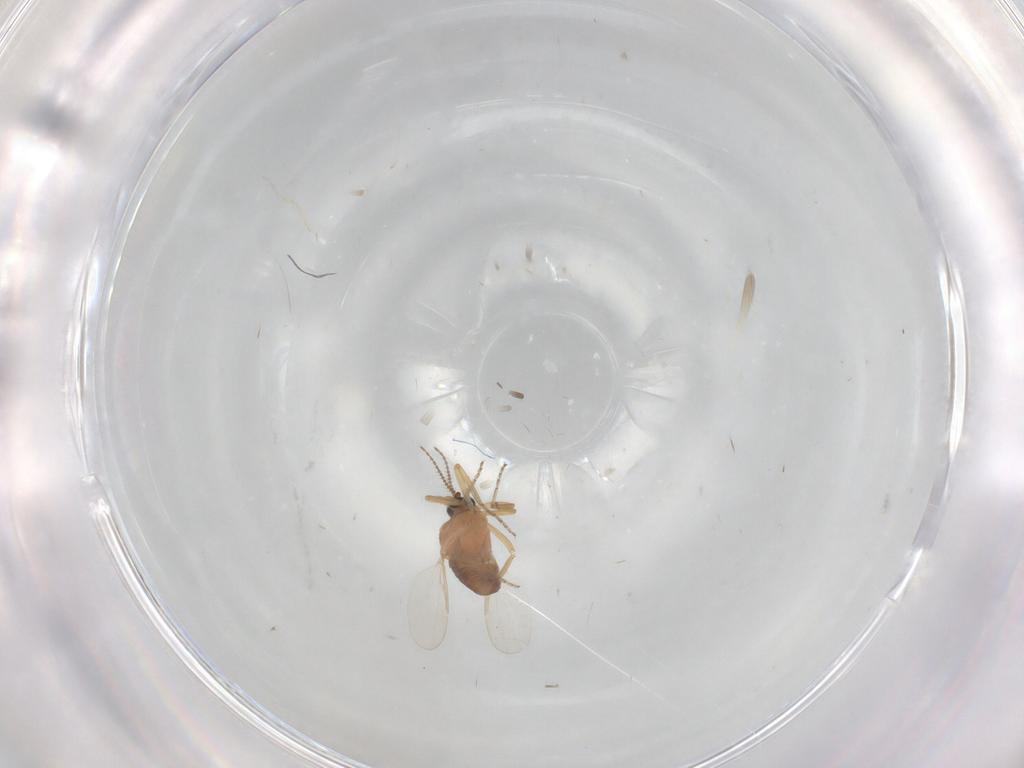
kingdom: Animalia
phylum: Arthropoda
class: Insecta
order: Diptera
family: Ceratopogonidae
